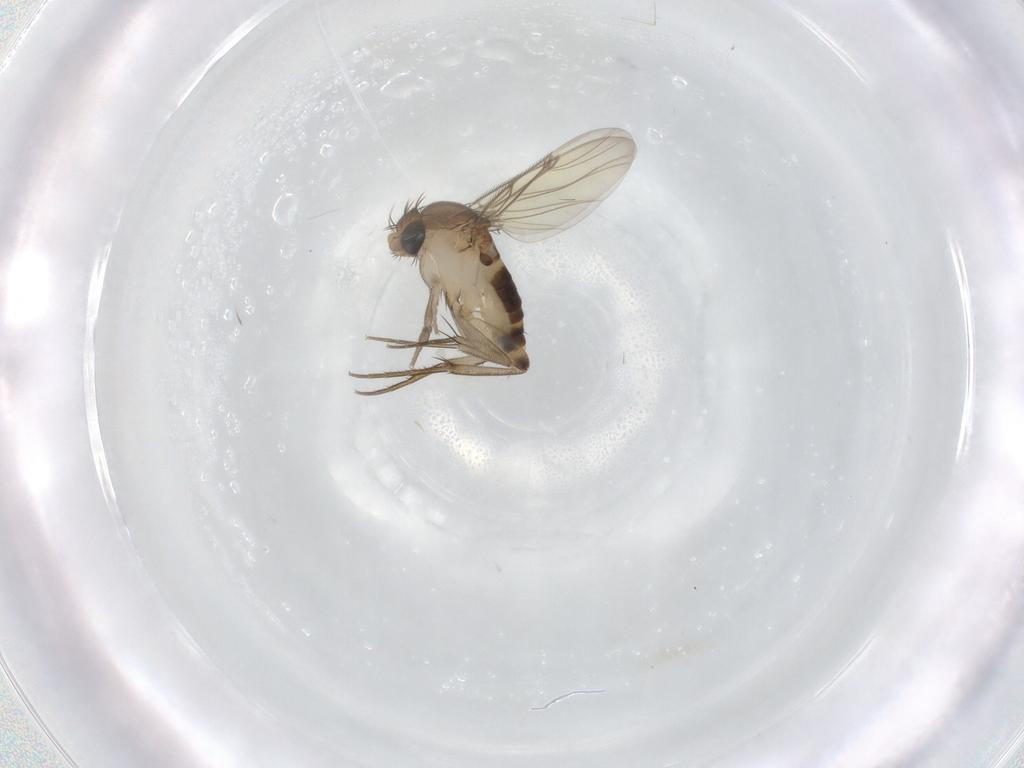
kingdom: Animalia
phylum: Arthropoda
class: Insecta
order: Diptera
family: Phoridae
